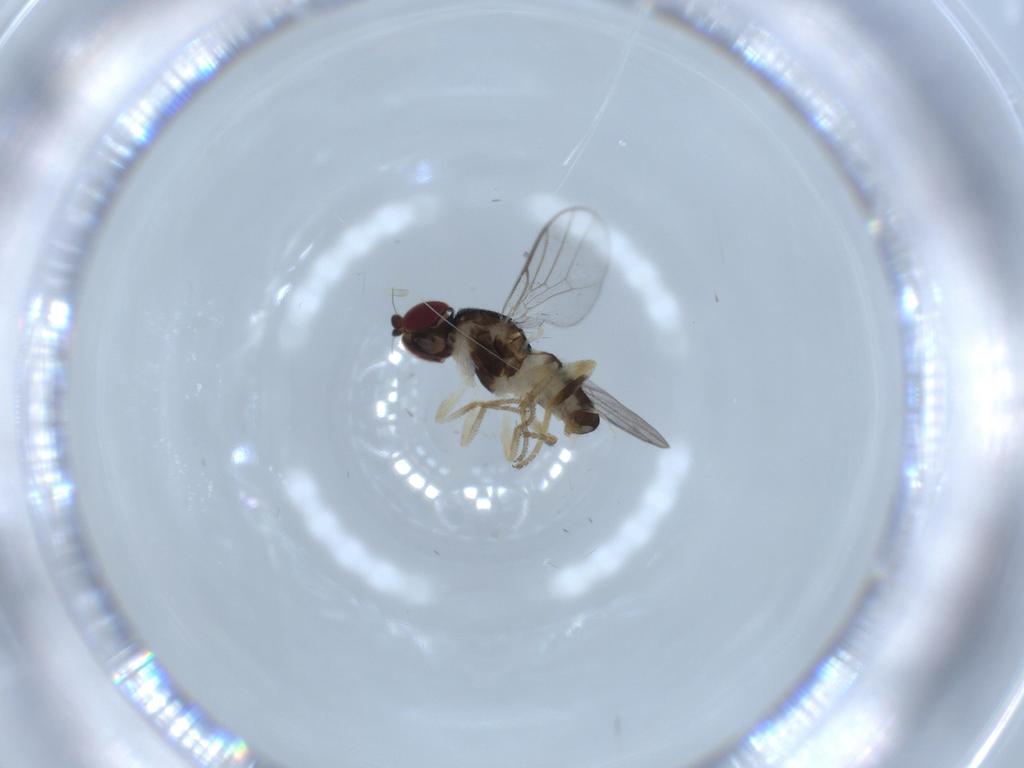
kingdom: Animalia
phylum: Arthropoda
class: Insecta
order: Diptera
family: Chloropidae
